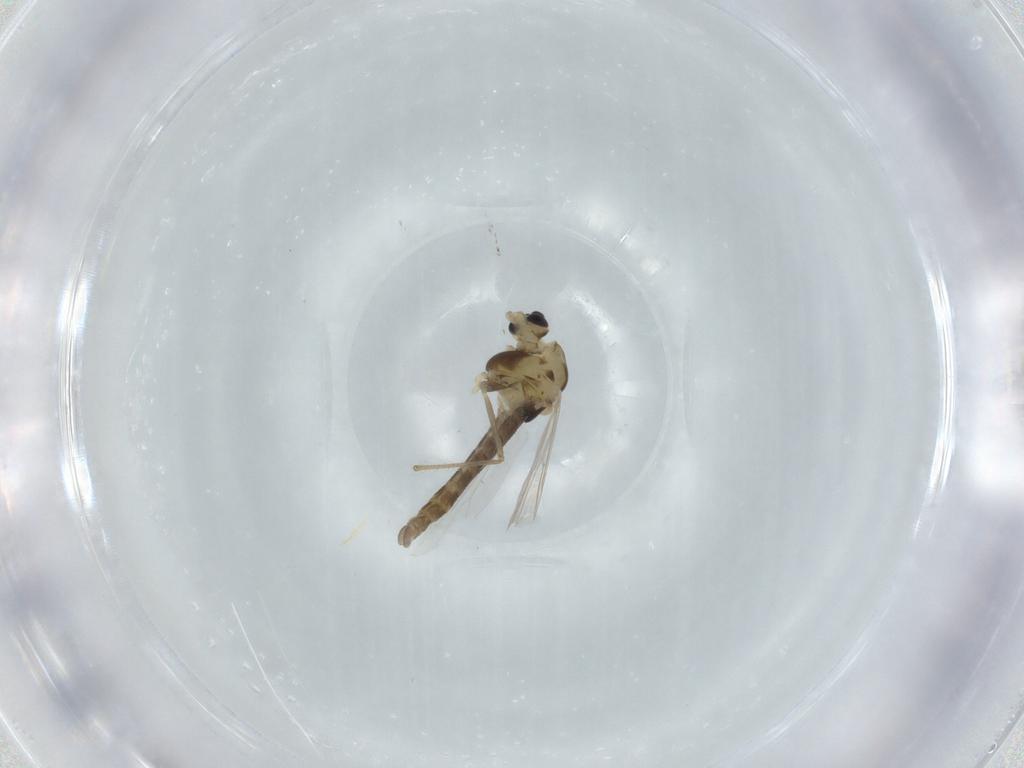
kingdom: Animalia
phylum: Arthropoda
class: Insecta
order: Diptera
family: Chironomidae
